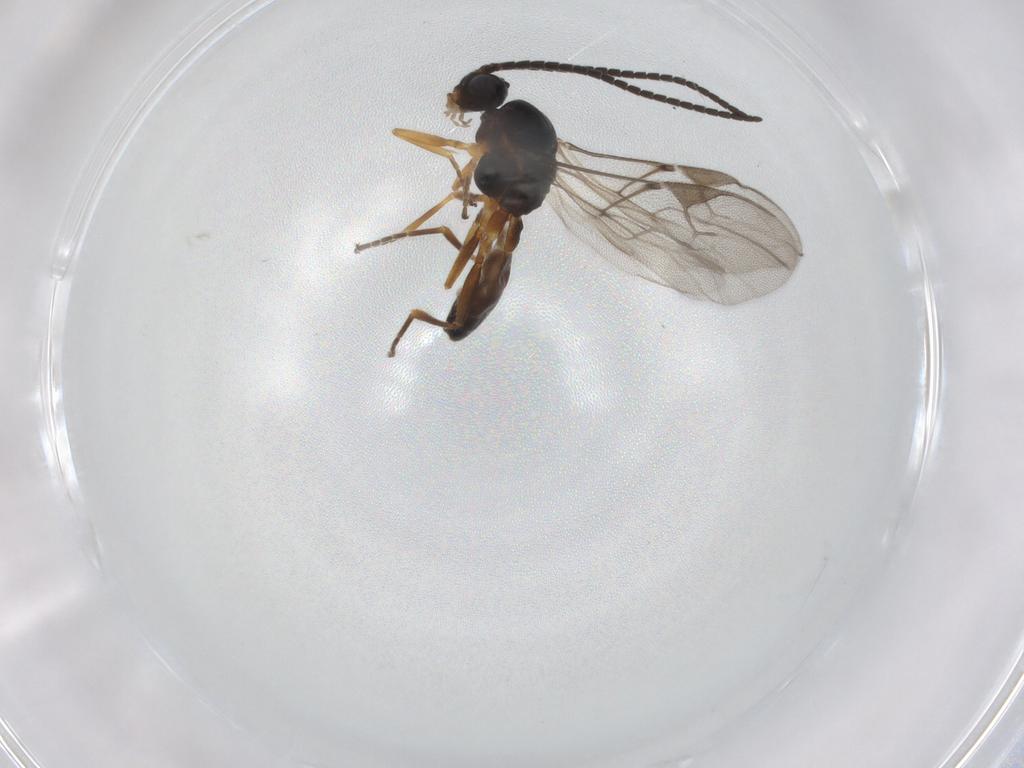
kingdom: Animalia
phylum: Arthropoda
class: Insecta
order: Hymenoptera
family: Braconidae
